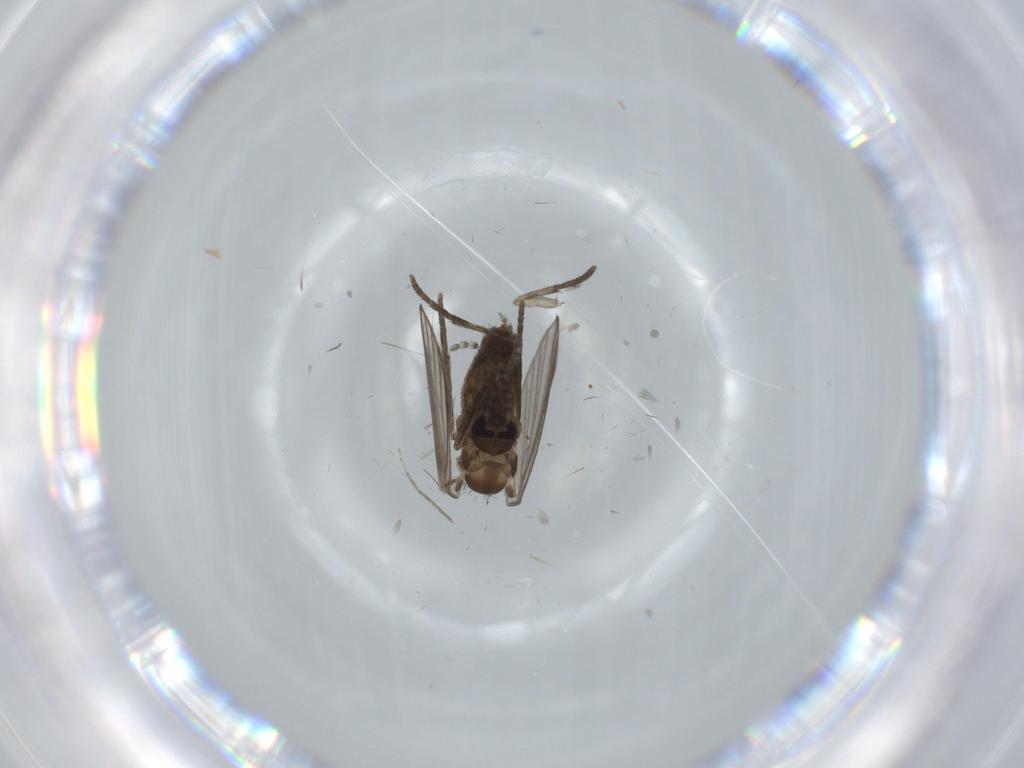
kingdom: Animalia
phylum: Arthropoda
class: Insecta
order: Diptera
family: Psychodidae
